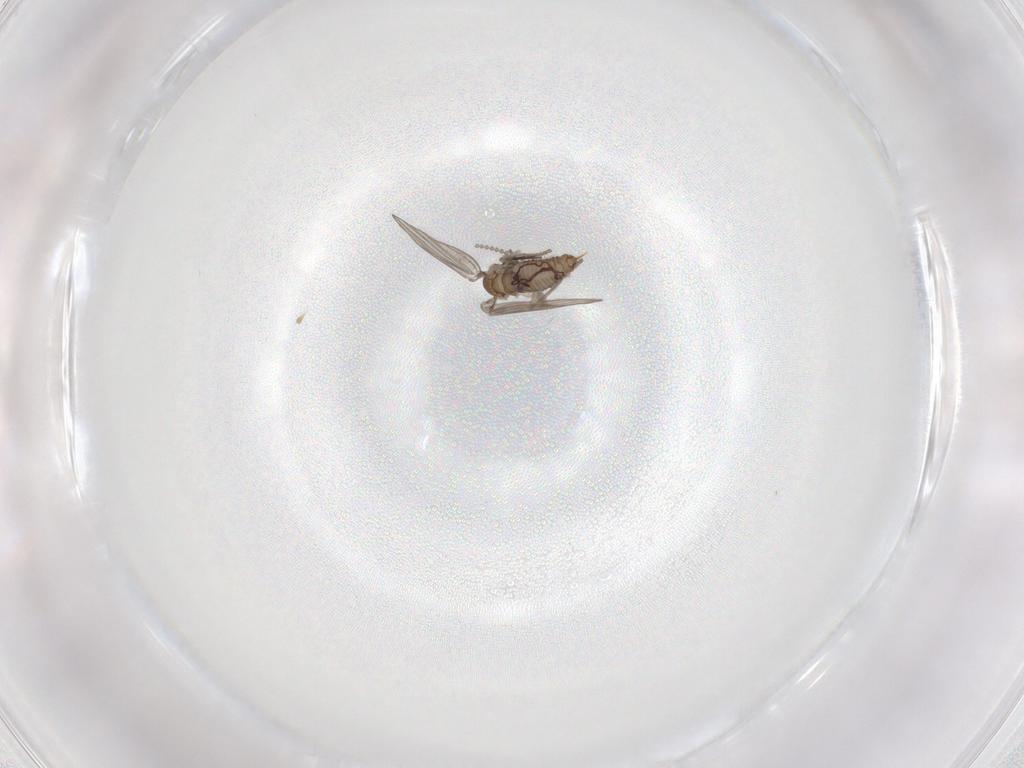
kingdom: Animalia
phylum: Arthropoda
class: Insecta
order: Diptera
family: Psychodidae
